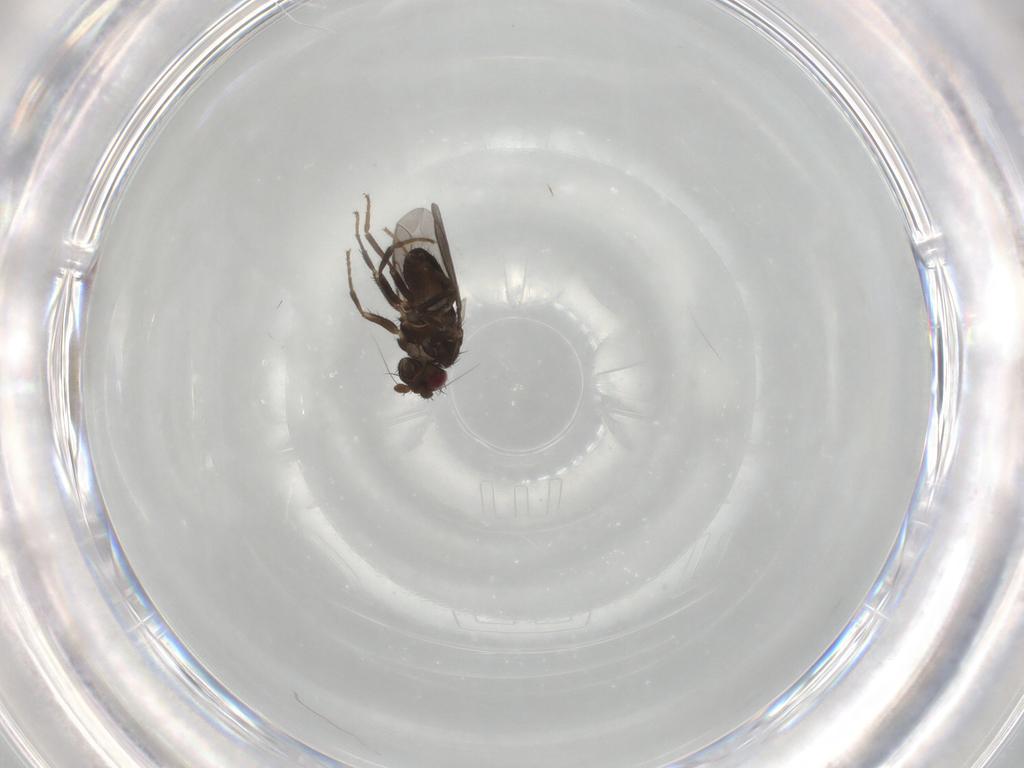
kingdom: Animalia
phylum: Arthropoda
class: Insecta
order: Diptera
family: Sphaeroceridae
